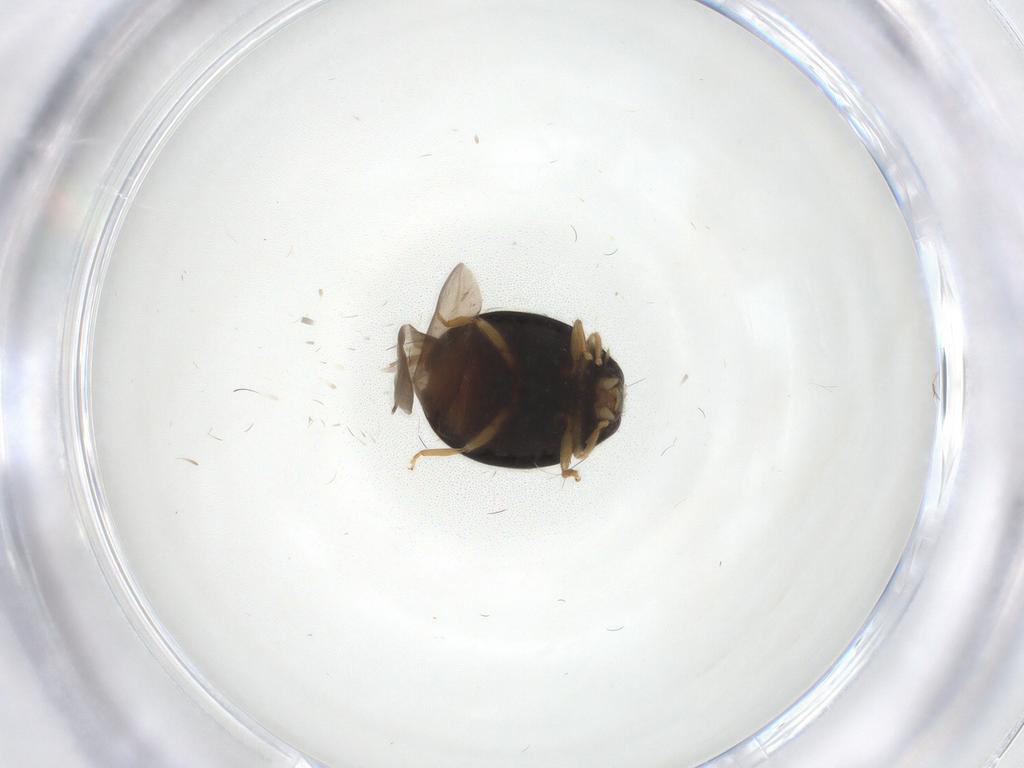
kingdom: Animalia
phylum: Arthropoda
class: Insecta
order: Coleoptera
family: Coccinellidae
